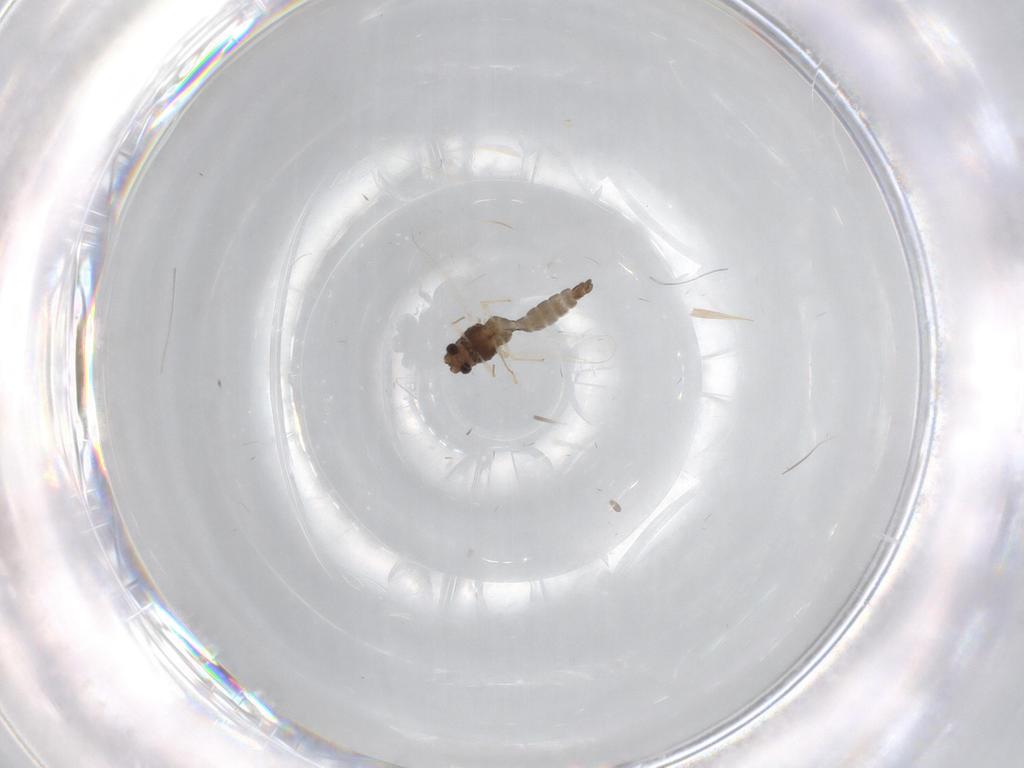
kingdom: Animalia
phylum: Arthropoda
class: Insecta
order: Diptera
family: Chironomidae
